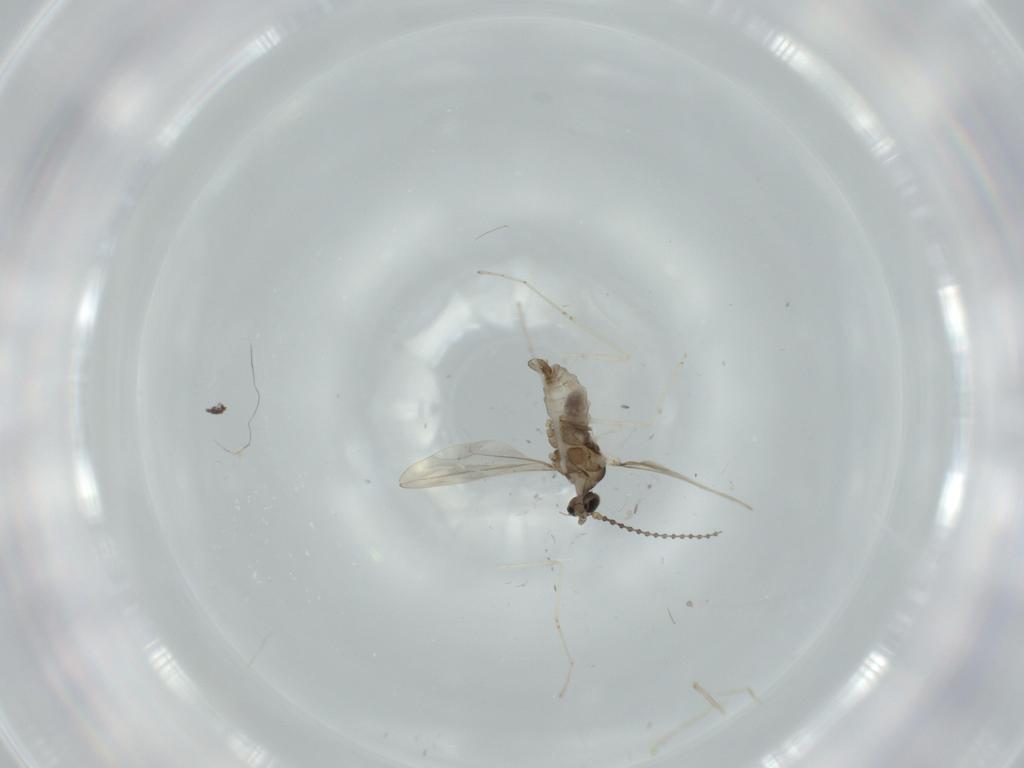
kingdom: Animalia
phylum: Arthropoda
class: Insecta
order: Diptera
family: Cecidomyiidae
